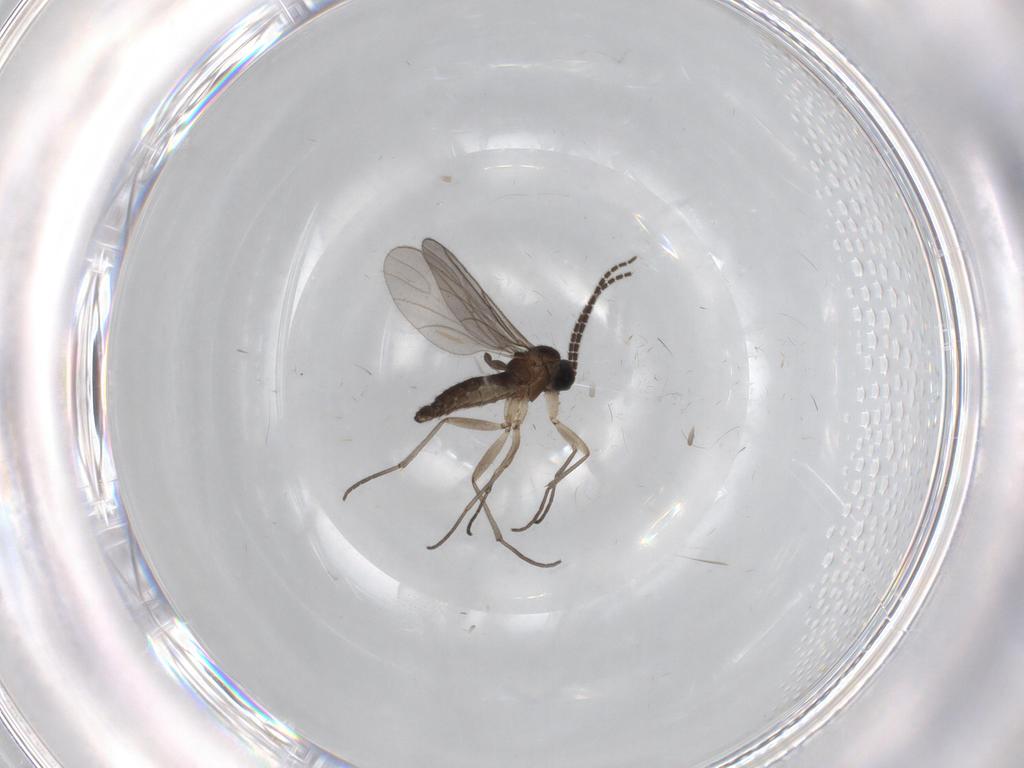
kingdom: Animalia
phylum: Arthropoda
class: Insecta
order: Diptera
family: Sciaridae
